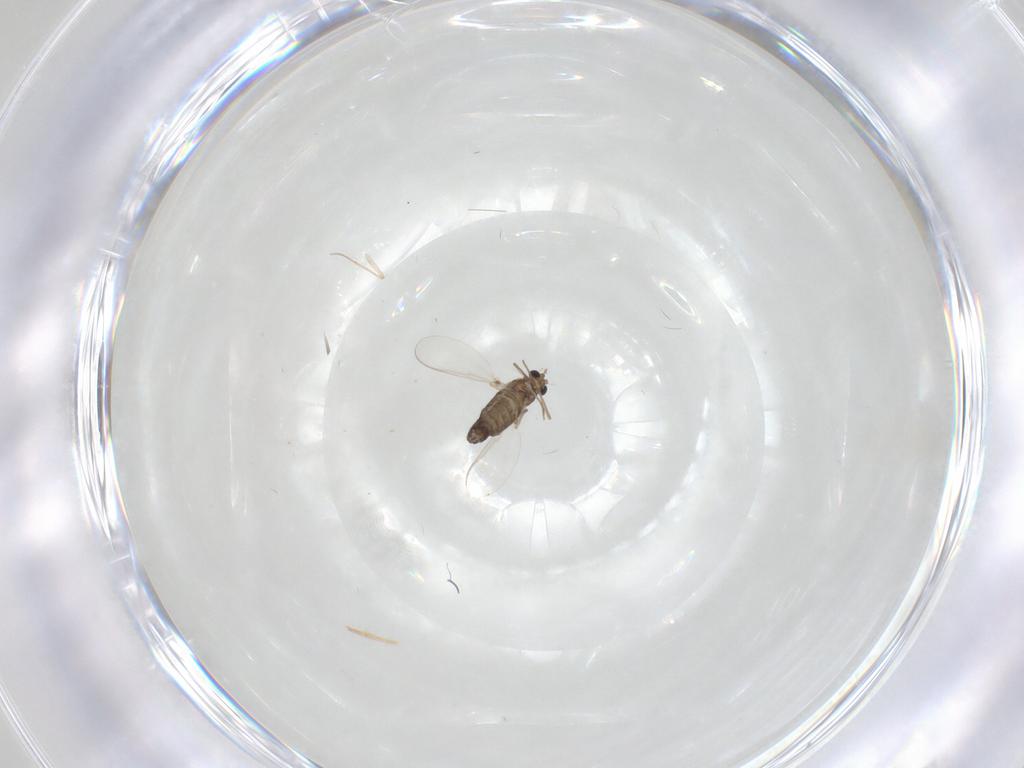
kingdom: Animalia
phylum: Arthropoda
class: Insecta
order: Diptera
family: Chironomidae
